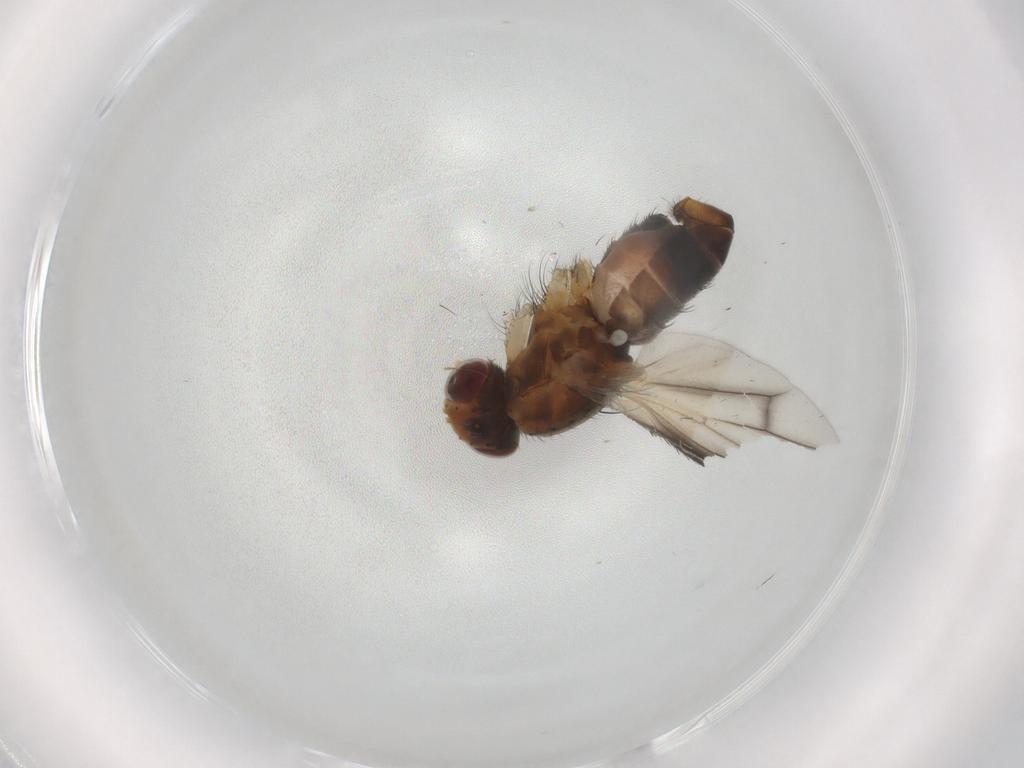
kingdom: Animalia
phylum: Arthropoda
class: Insecta
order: Diptera
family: Heleomyzidae
